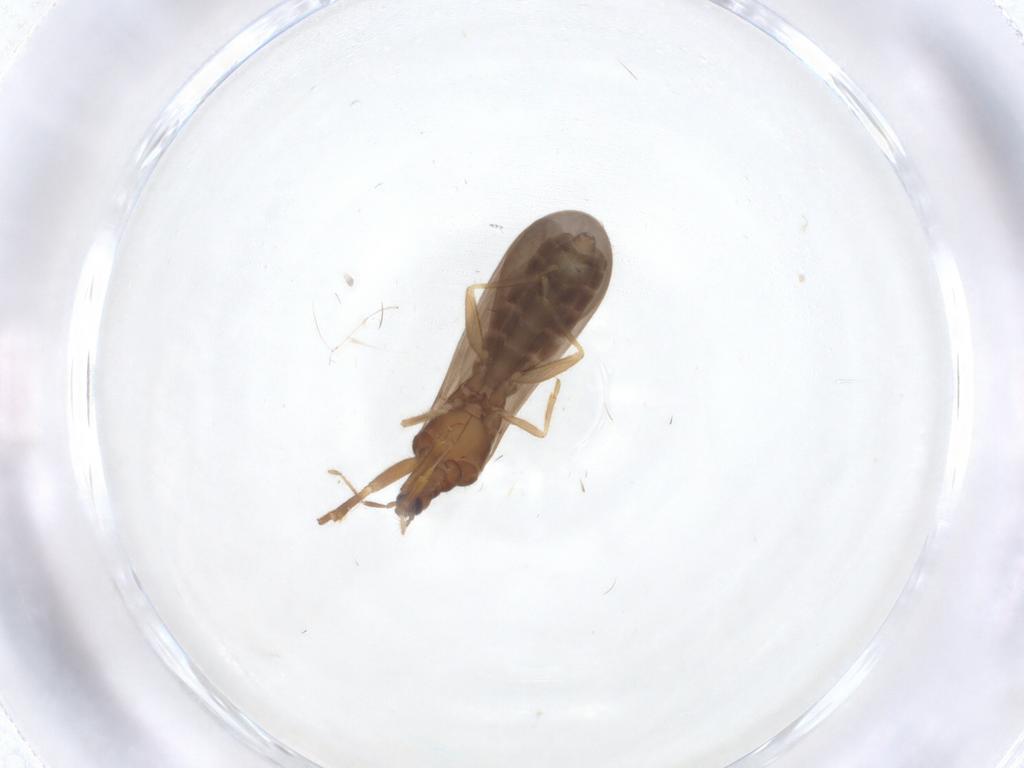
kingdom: Animalia
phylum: Arthropoda
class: Insecta
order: Hemiptera
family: Enicocephalidae
